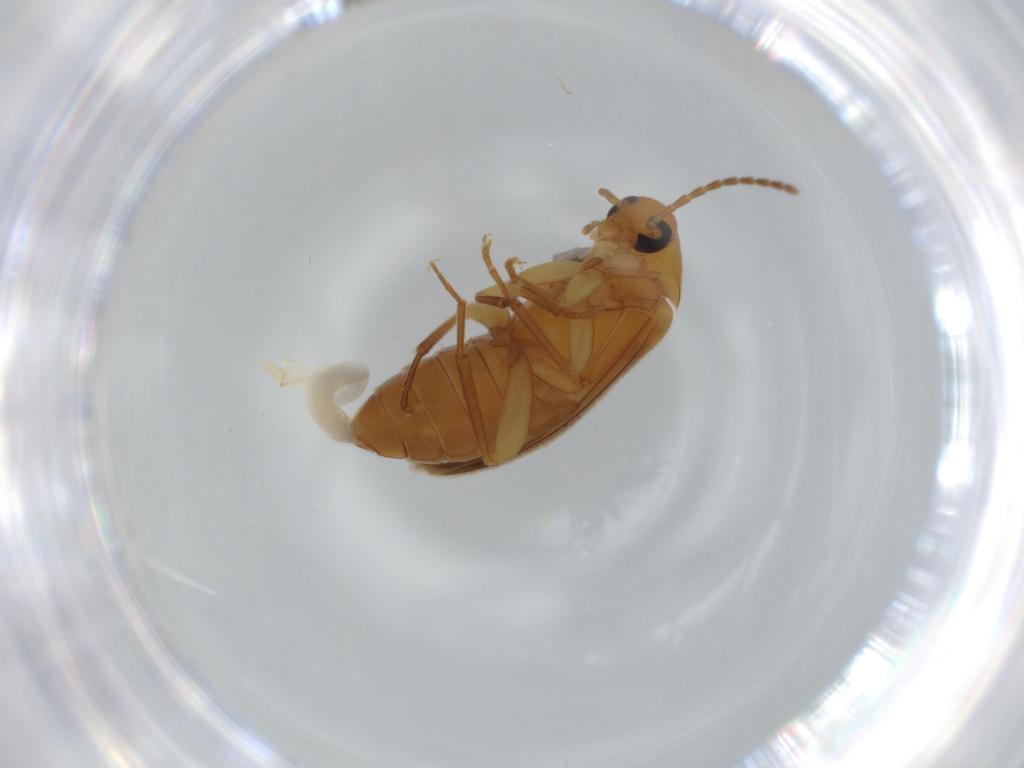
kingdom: Animalia
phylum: Arthropoda
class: Insecta
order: Coleoptera
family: Scraptiidae
